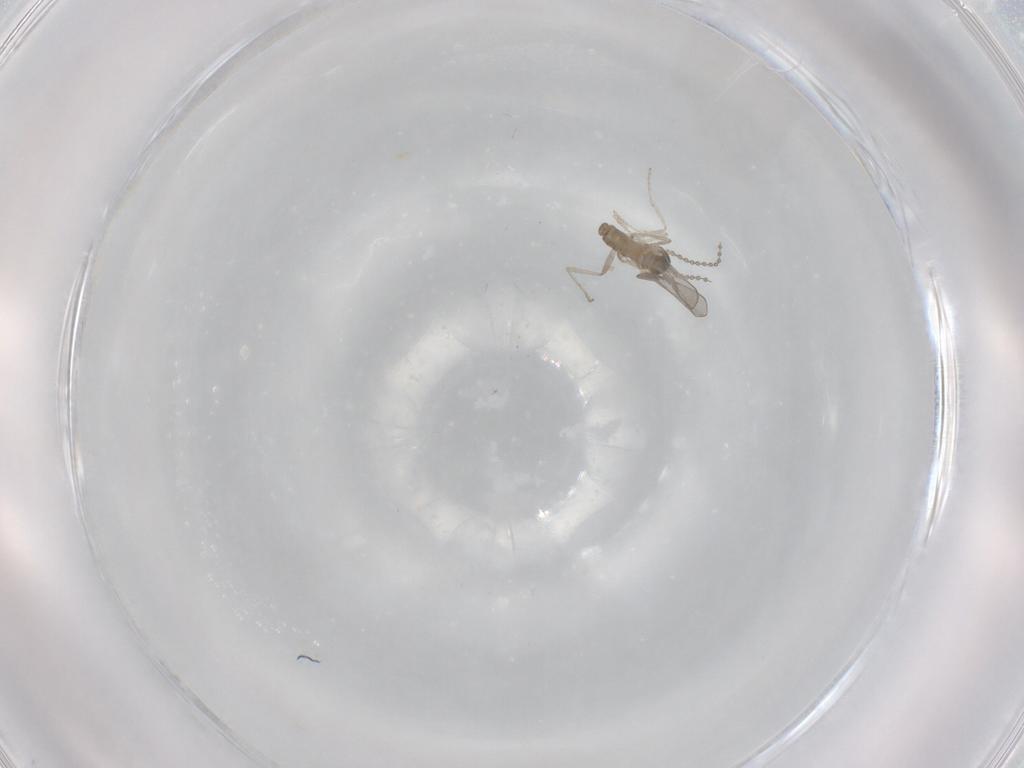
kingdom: Animalia
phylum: Arthropoda
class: Insecta
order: Diptera
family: Cecidomyiidae
